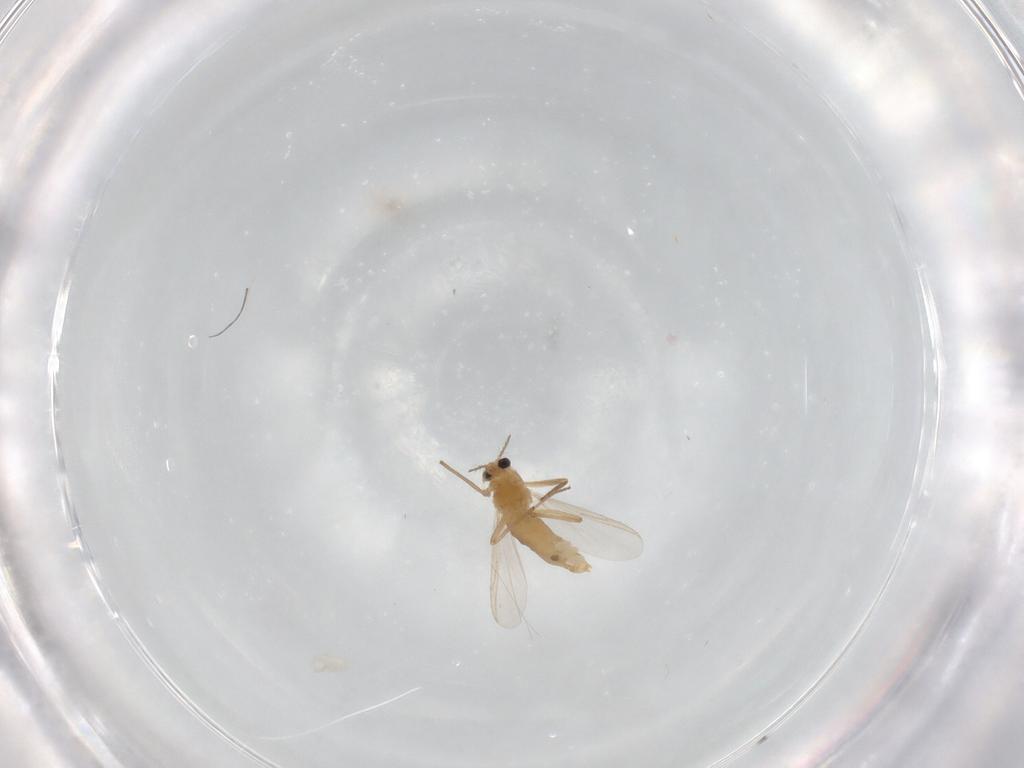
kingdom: Animalia
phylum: Arthropoda
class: Insecta
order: Diptera
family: Chironomidae
